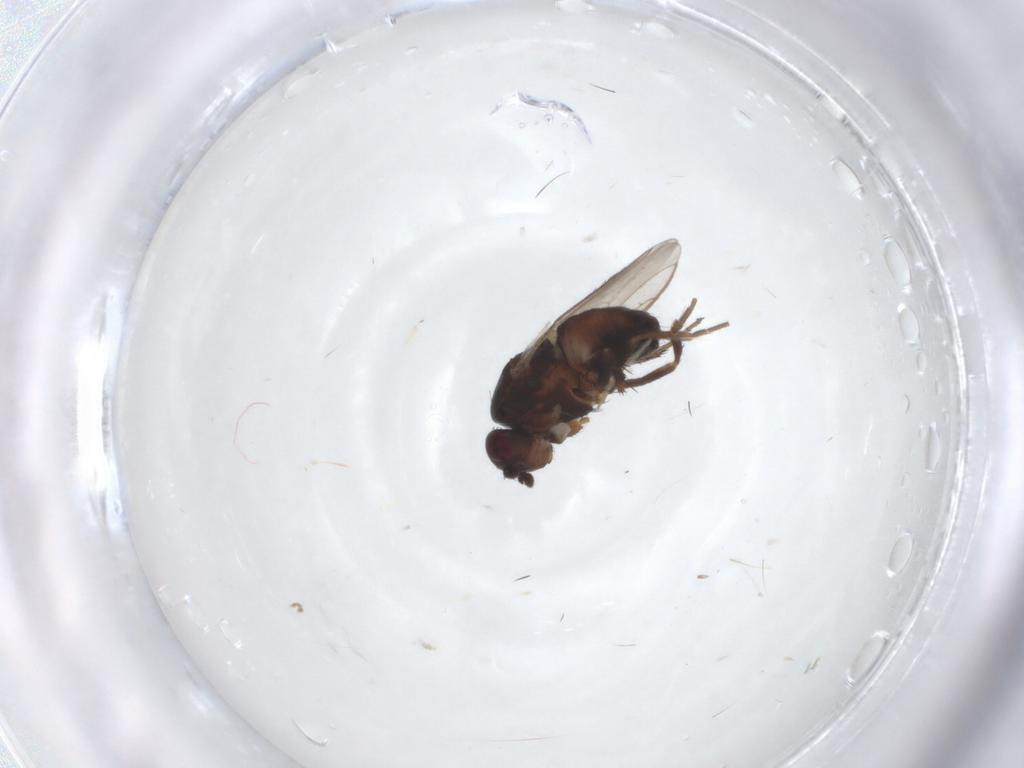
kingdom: Animalia
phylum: Arthropoda
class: Insecta
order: Diptera
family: Sphaeroceridae
